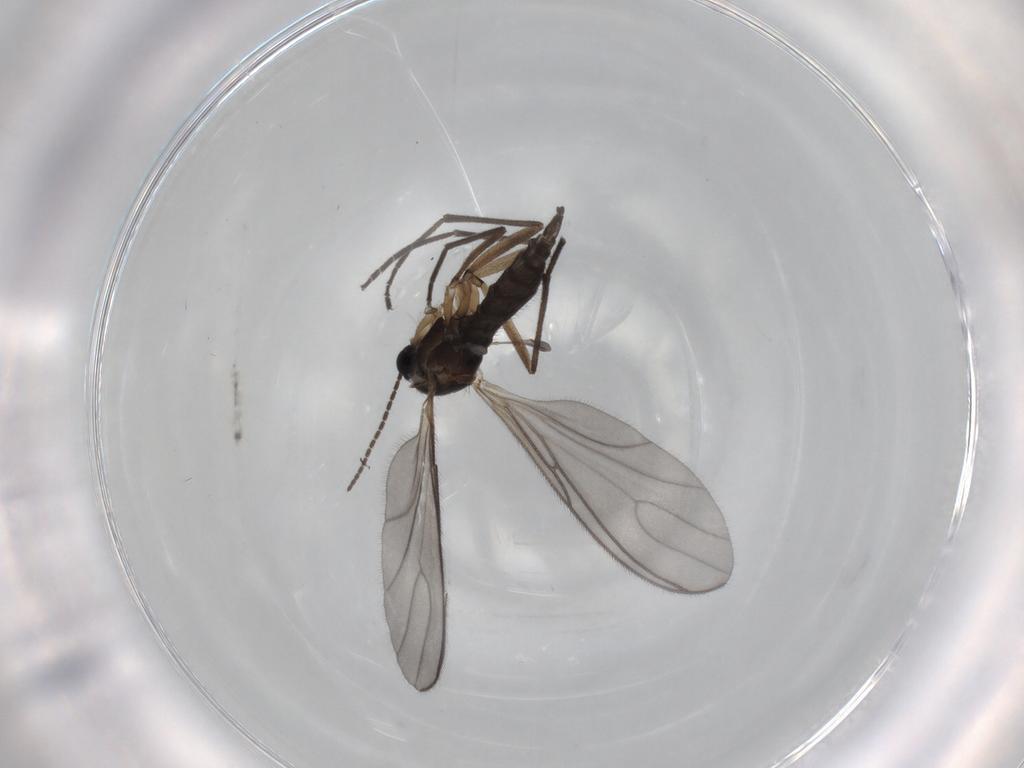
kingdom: Animalia
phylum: Arthropoda
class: Insecta
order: Diptera
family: Sciaridae
